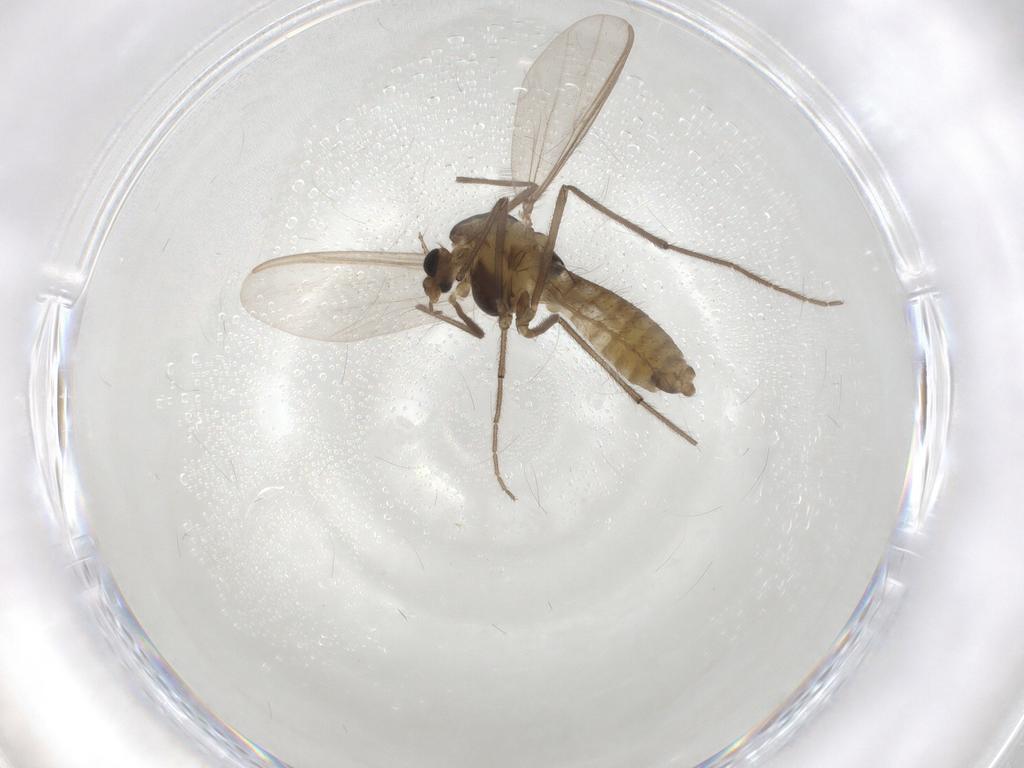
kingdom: Animalia
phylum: Arthropoda
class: Insecta
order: Diptera
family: Chironomidae
